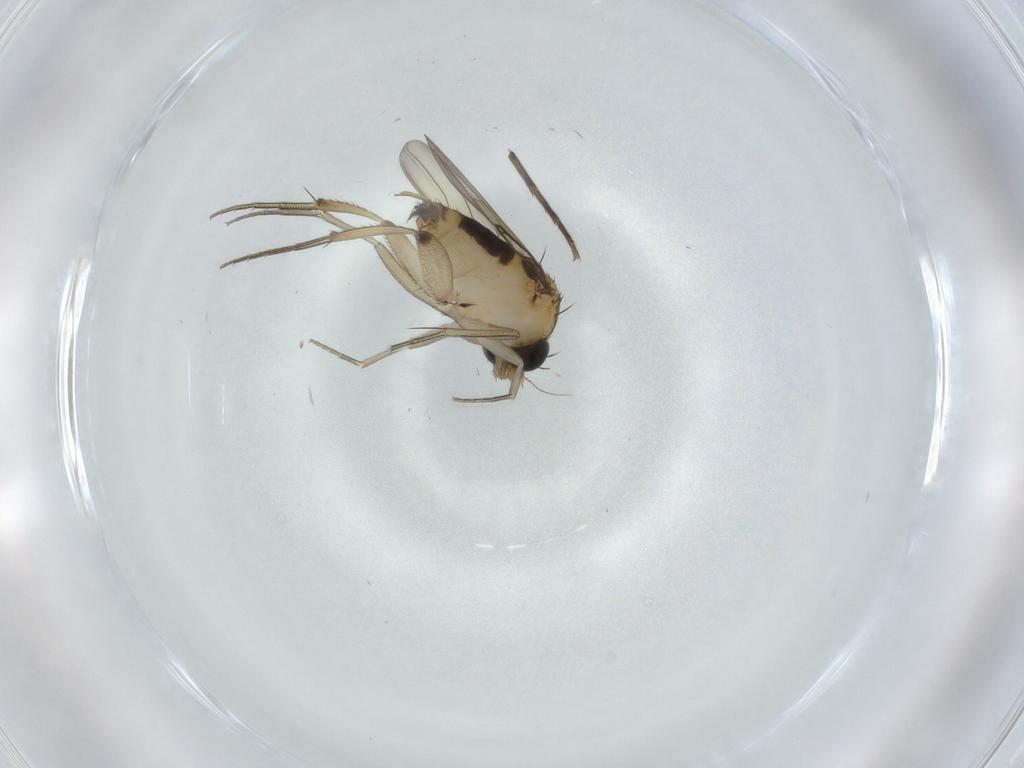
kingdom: Animalia
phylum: Arthropoda
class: Insecta
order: Diptera
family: Phoridae
